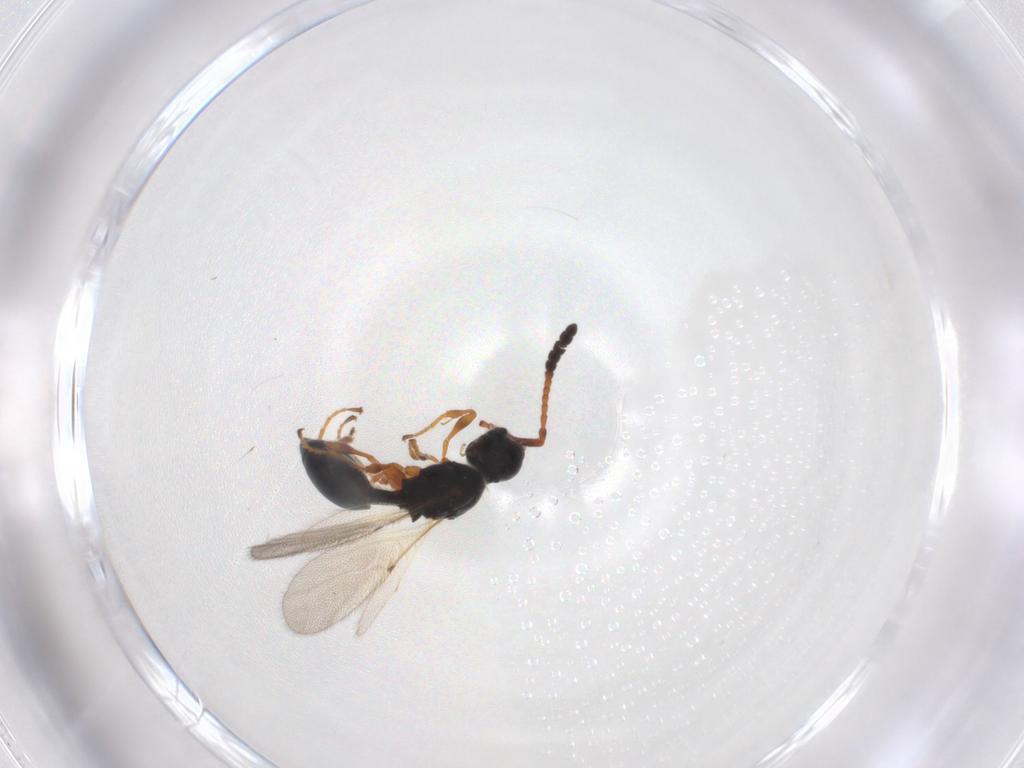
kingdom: Animalia
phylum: Arthropoda
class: Insecta
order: Hymenoptera
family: Diapriidae
